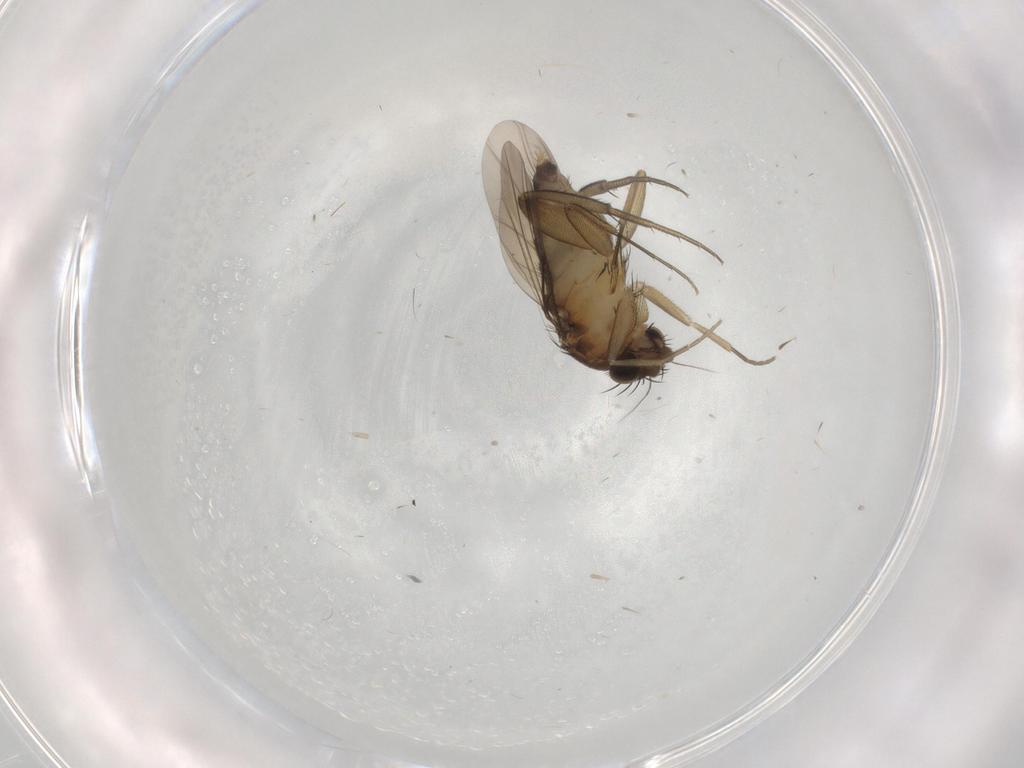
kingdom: Animalia
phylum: Arthropoda
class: Insecta
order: Diptera
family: Phoridae
